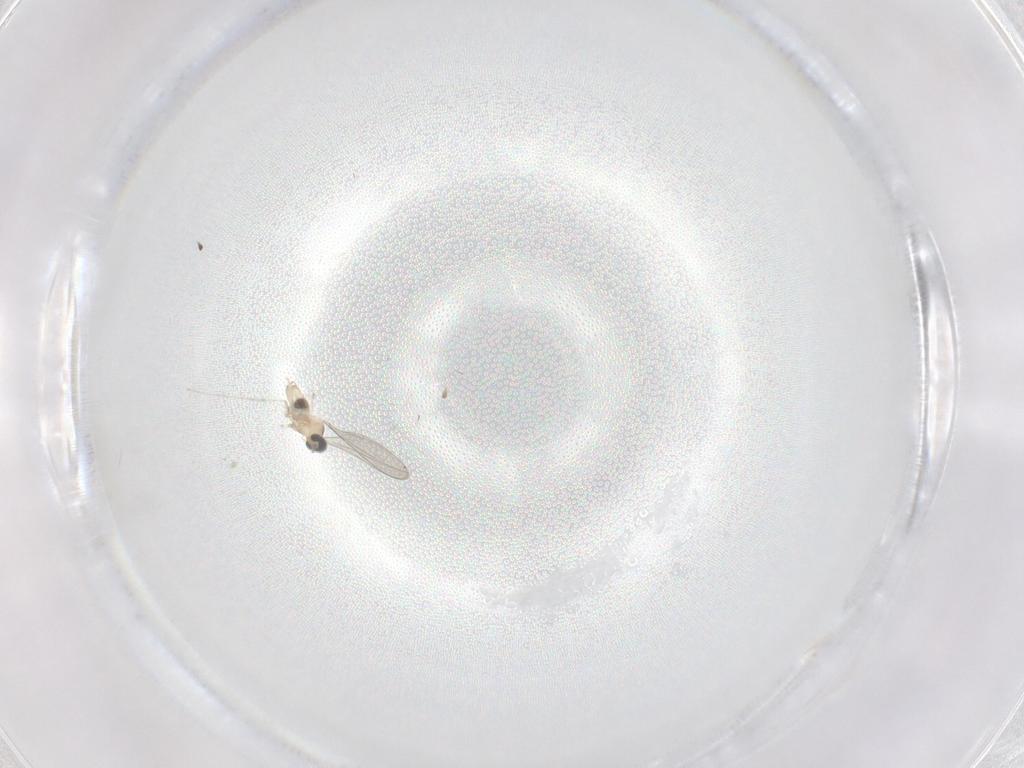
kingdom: Animalia
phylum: Arthropoda
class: Insecta
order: Diptera
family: Cecidomyiidae
